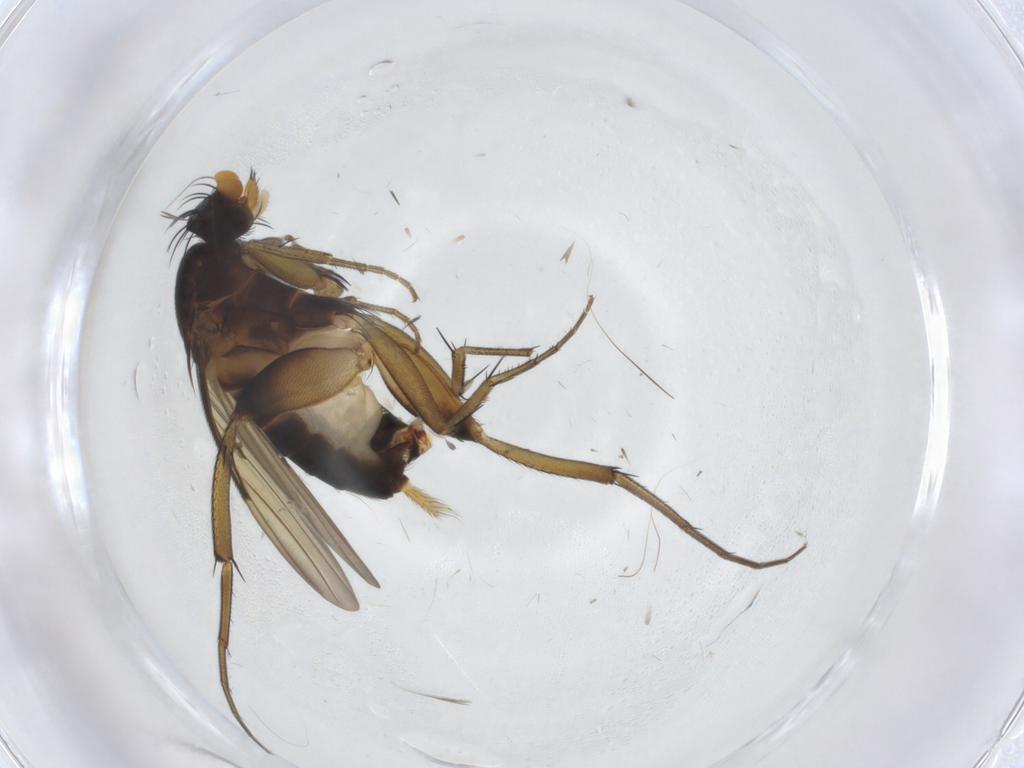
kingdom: Animalia
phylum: Arthropoda
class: Insecta
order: Diptera
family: Phoridae
